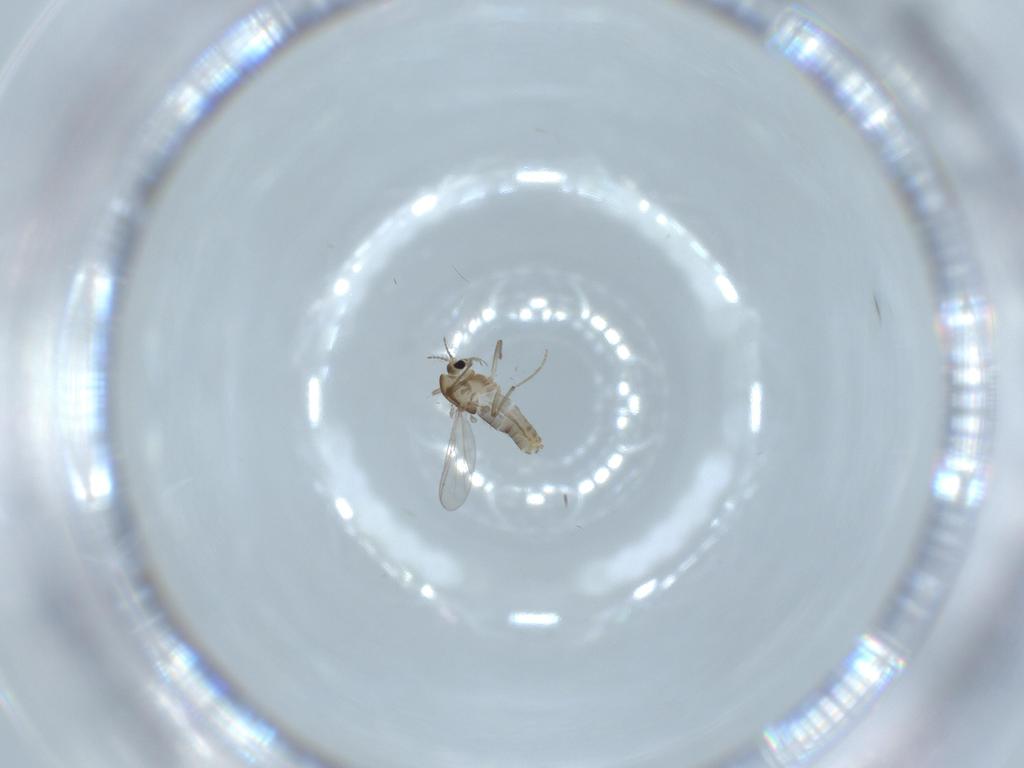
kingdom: Animalia
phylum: Arthropoda
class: Insecta
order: Diptera
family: Chironomidae
